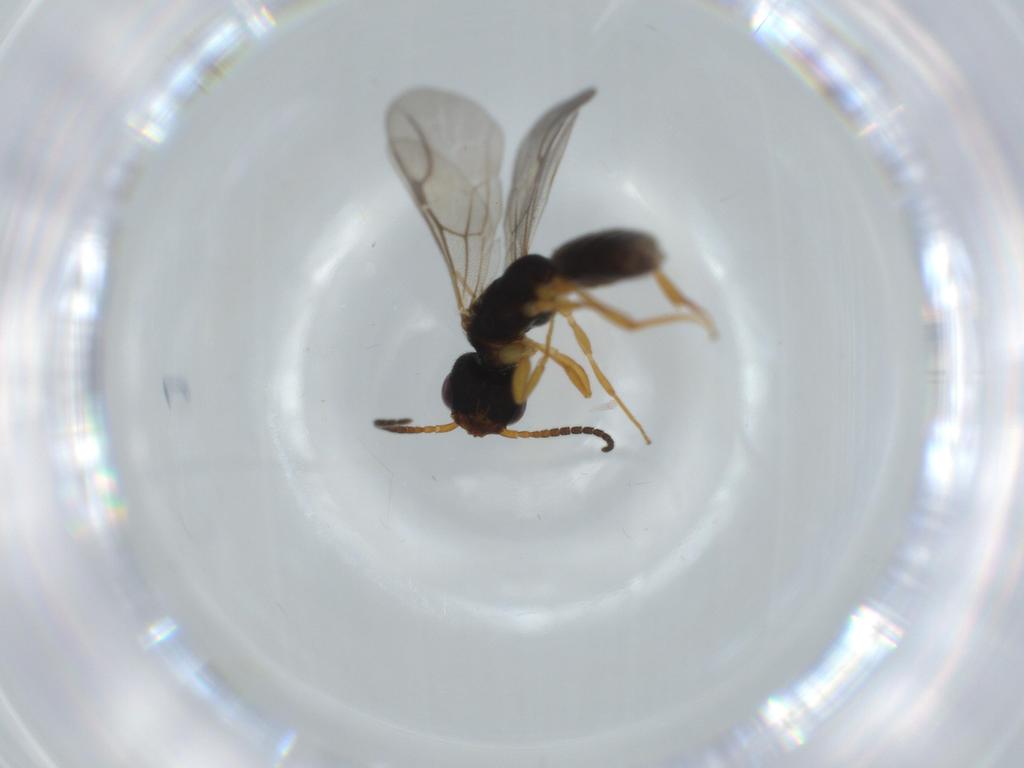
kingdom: Animalia
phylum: Arthropoda
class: Insecta
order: Hymenoptera
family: Bethylidae
